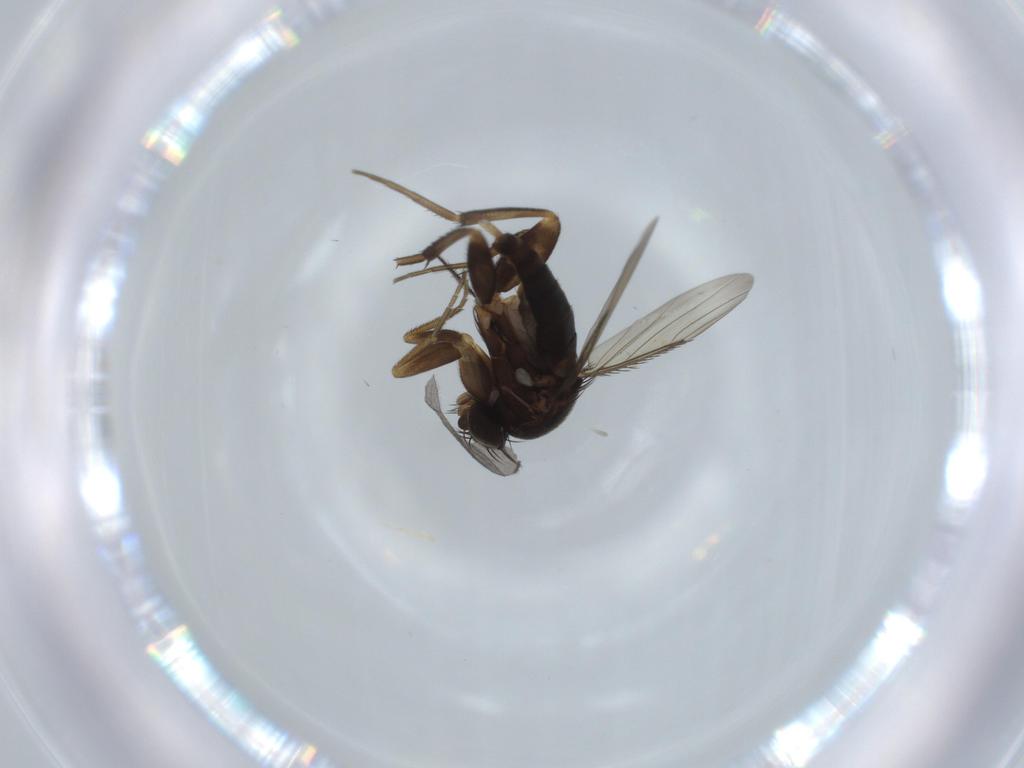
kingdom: Animalia
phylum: Arthropoda
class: Insecta
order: Diptera
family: Phoridae
